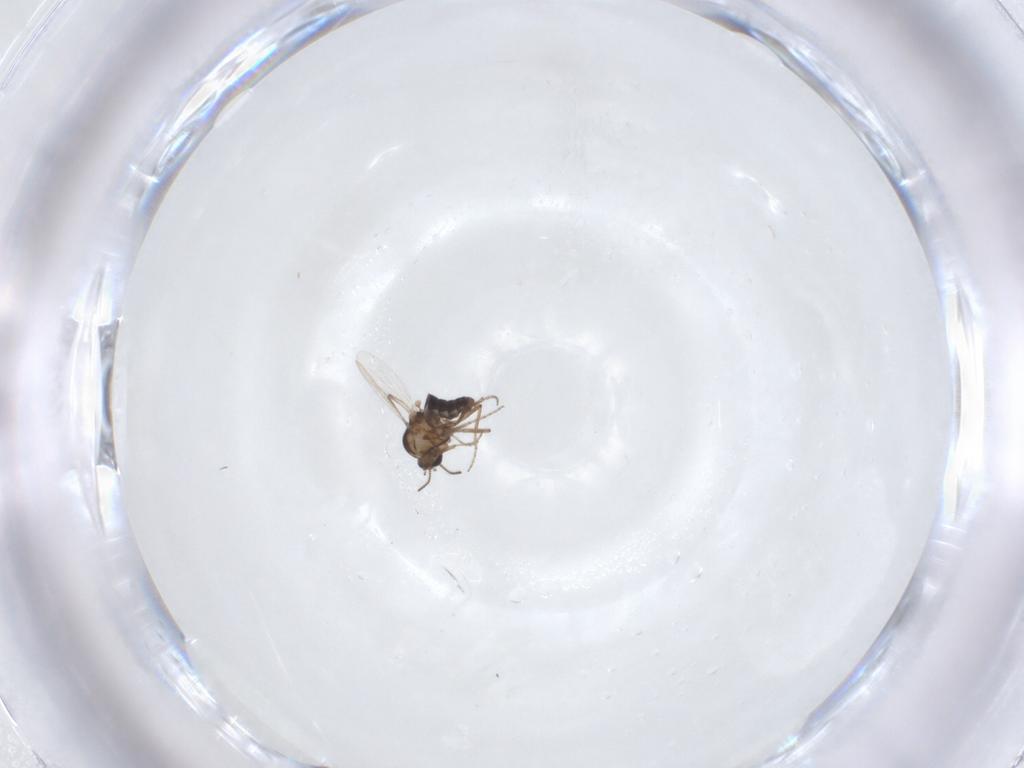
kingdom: Animalia
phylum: Arthropoda
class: Insecta
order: Diptera
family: Ceratopogonidae
